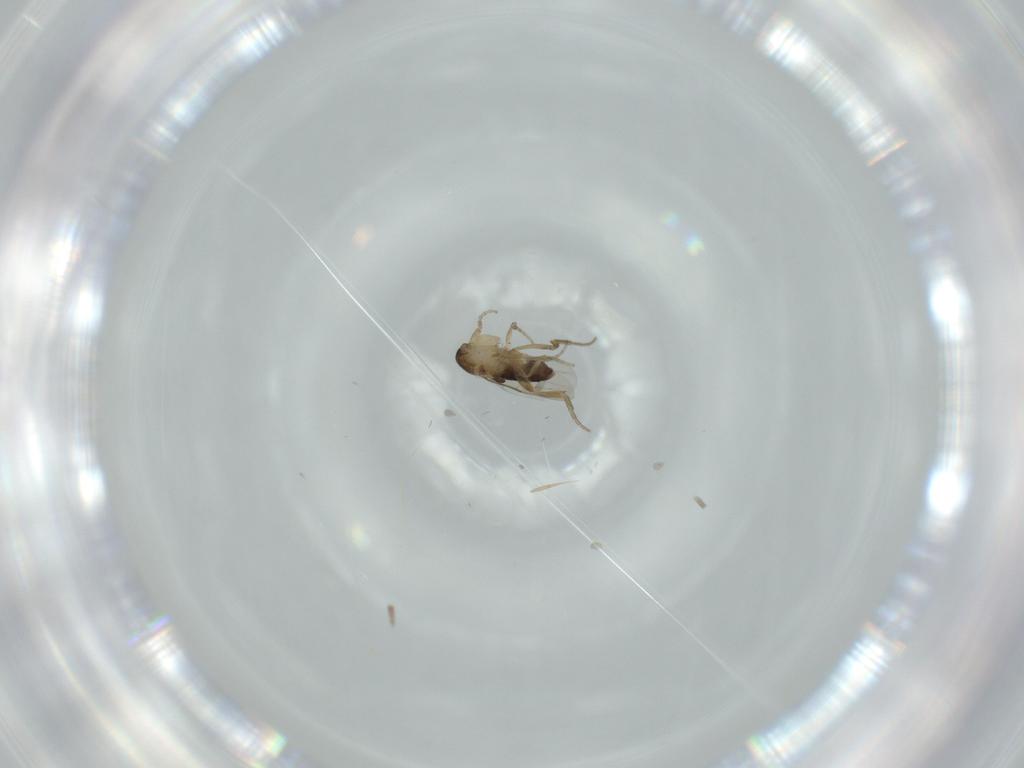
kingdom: Animalia
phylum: Arthropoda
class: Insecta
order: Diptera
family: Phoridae
